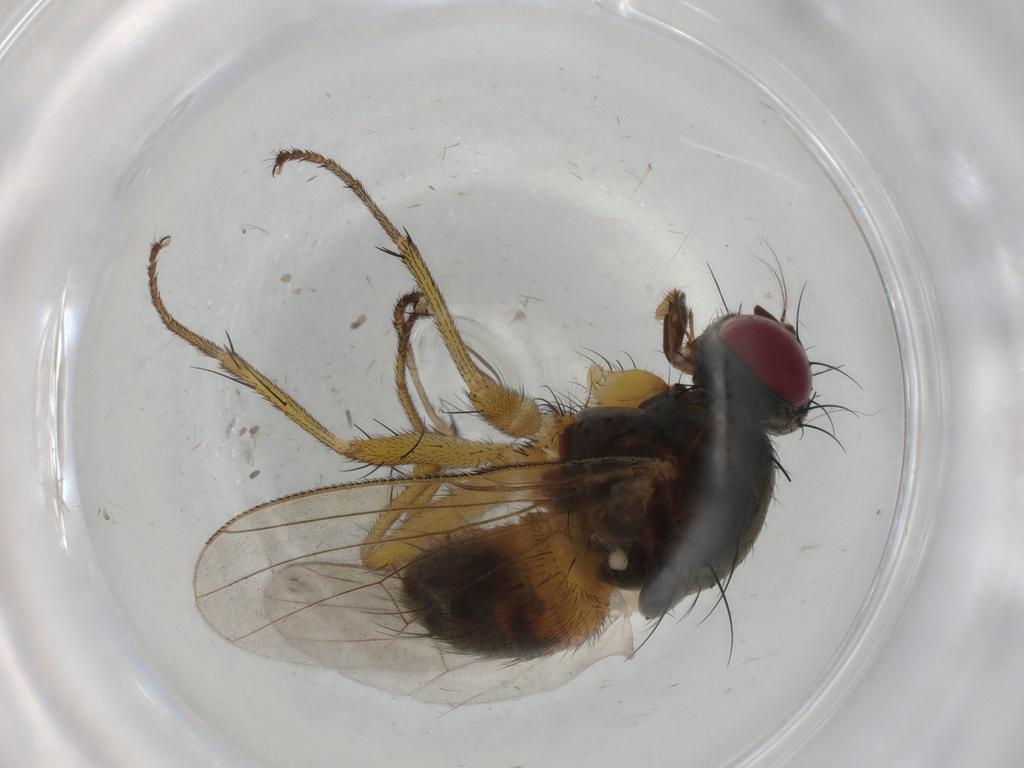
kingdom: Animalia
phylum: Arthropoda
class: Insecta
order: Diptera
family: Muscidae
